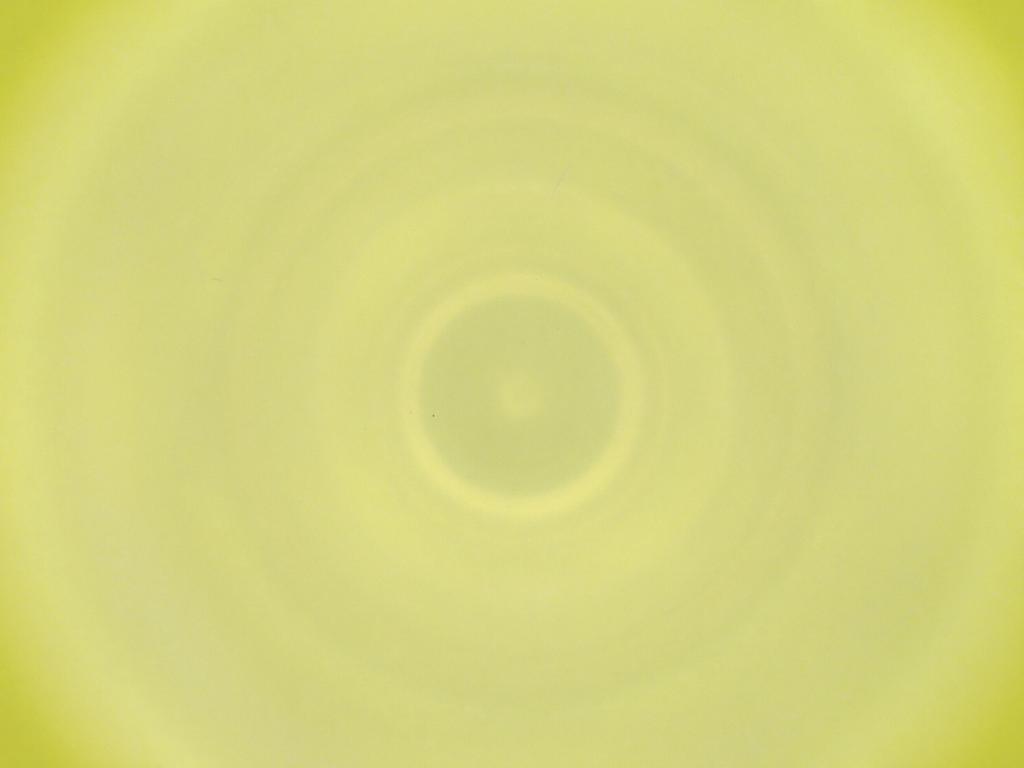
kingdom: Animalia
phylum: Arthropoda
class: Insecta
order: Diptera
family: Cecidomyiidae
